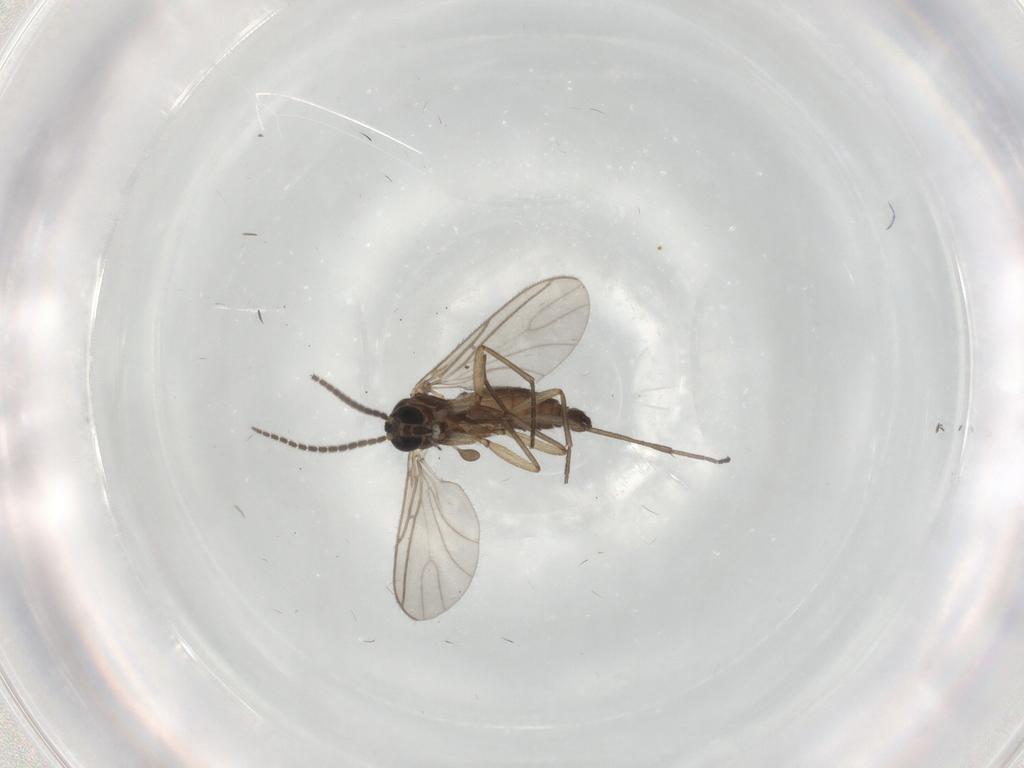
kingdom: Animalia
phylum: Arthropoda
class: Insecta
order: Diptera
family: Sciaridae
